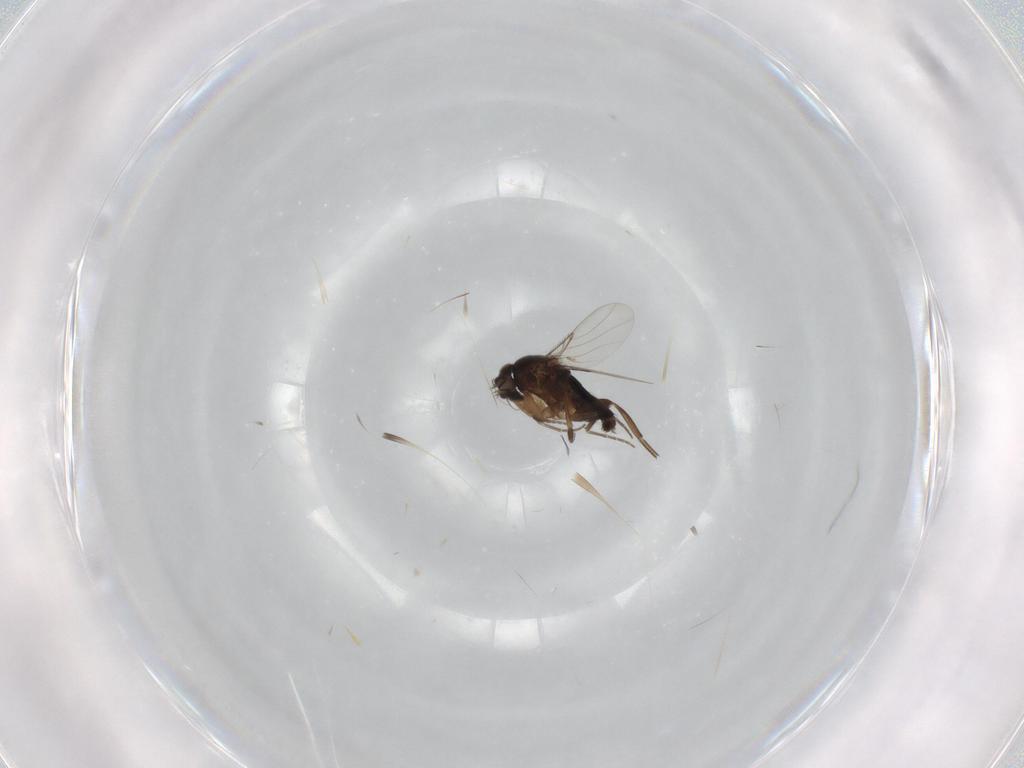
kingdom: Animalia
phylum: Arthropoda
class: Insecta
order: Diptera
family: Phoridae
